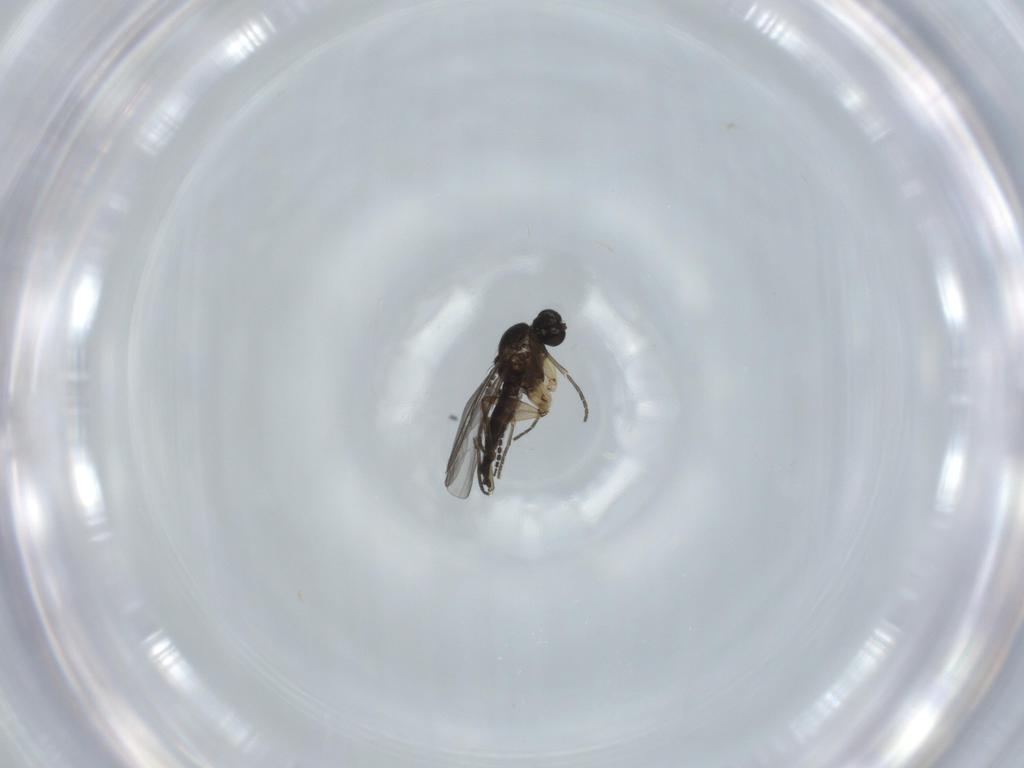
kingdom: Animalia
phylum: Arthropoda
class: Insecta
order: Diptera
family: Sciaridae
